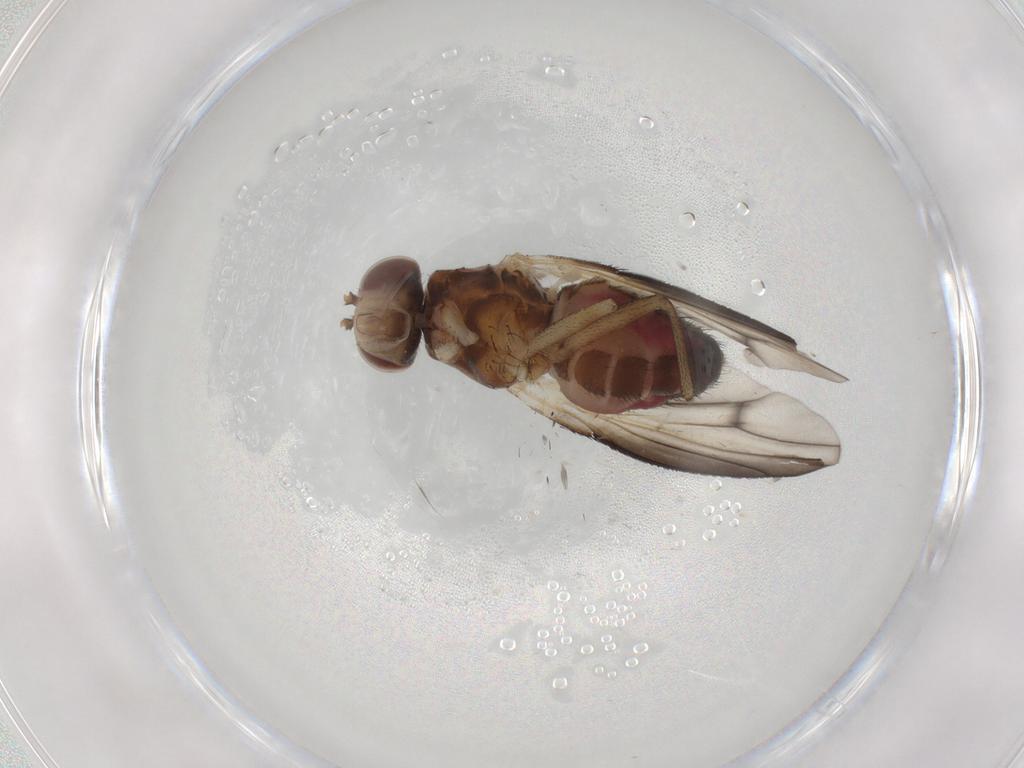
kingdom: Animalia
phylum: Arthropoda
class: Insecta
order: Diptera
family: Heleomyzidae
